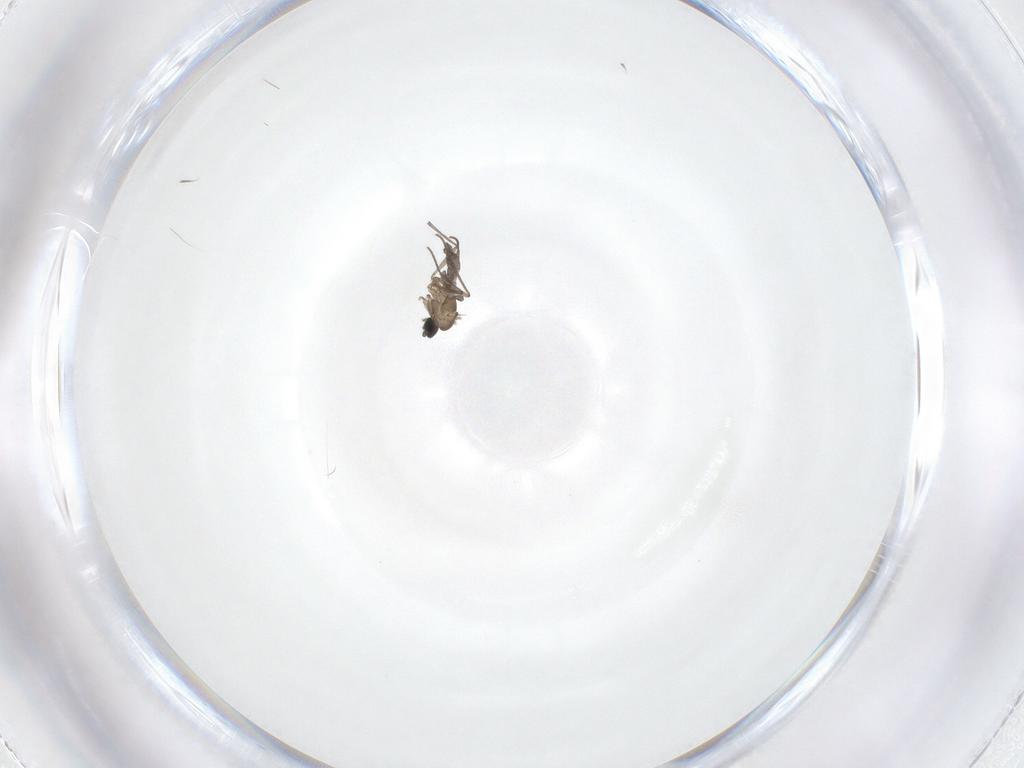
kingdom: Animalia
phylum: Arthropoda
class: Insecta
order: Diptera
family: Sciaridae
